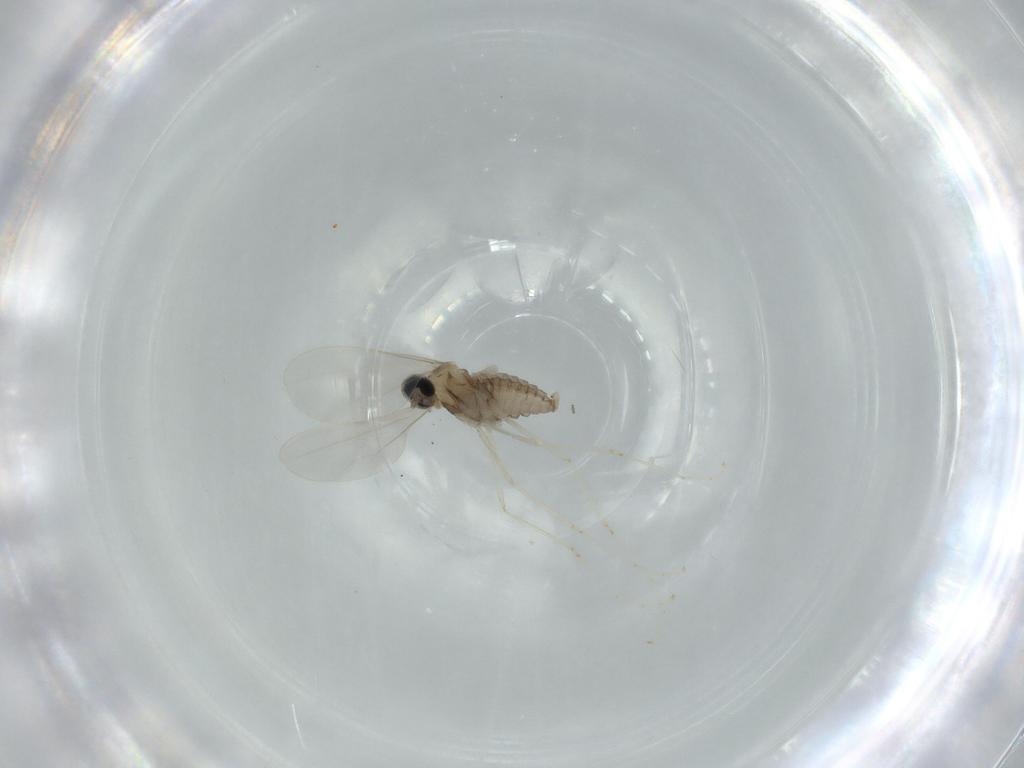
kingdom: Animalia
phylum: Arthropoda
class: Insecta
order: Diptera
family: Cecidomyiidae
